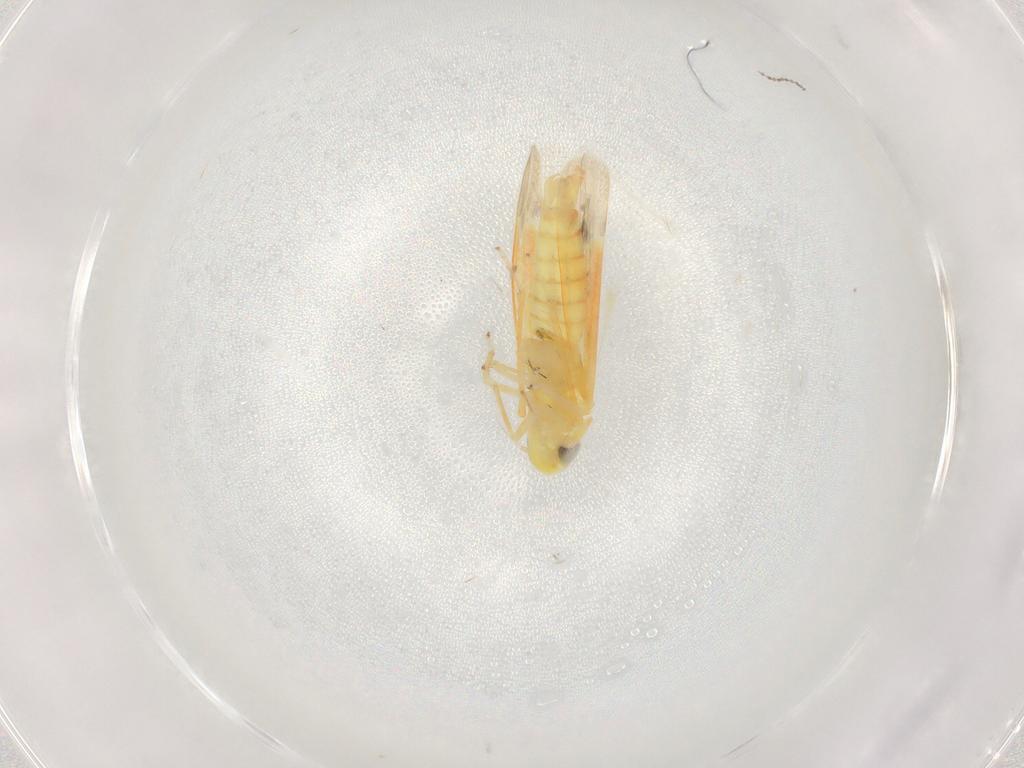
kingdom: Animalia
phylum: Arthropoda
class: Insecta
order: Hemiptera
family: Cicadellidae
